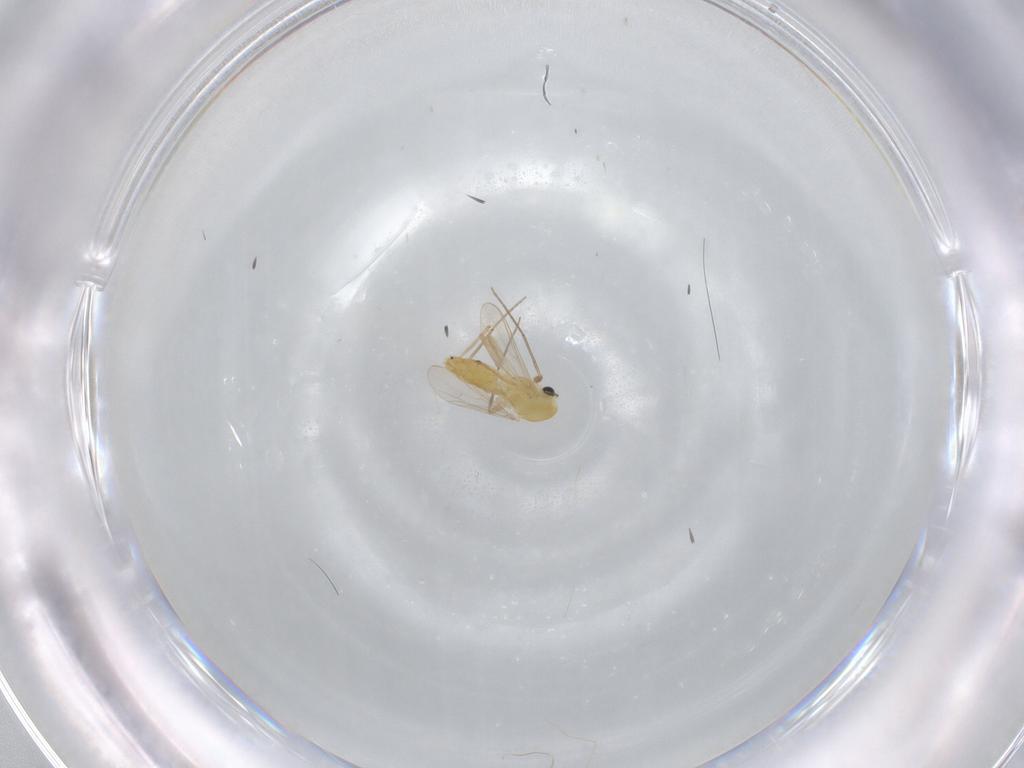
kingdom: Animalia
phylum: Arthropoda
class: Insecta
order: Diptera
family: Chironomidae
